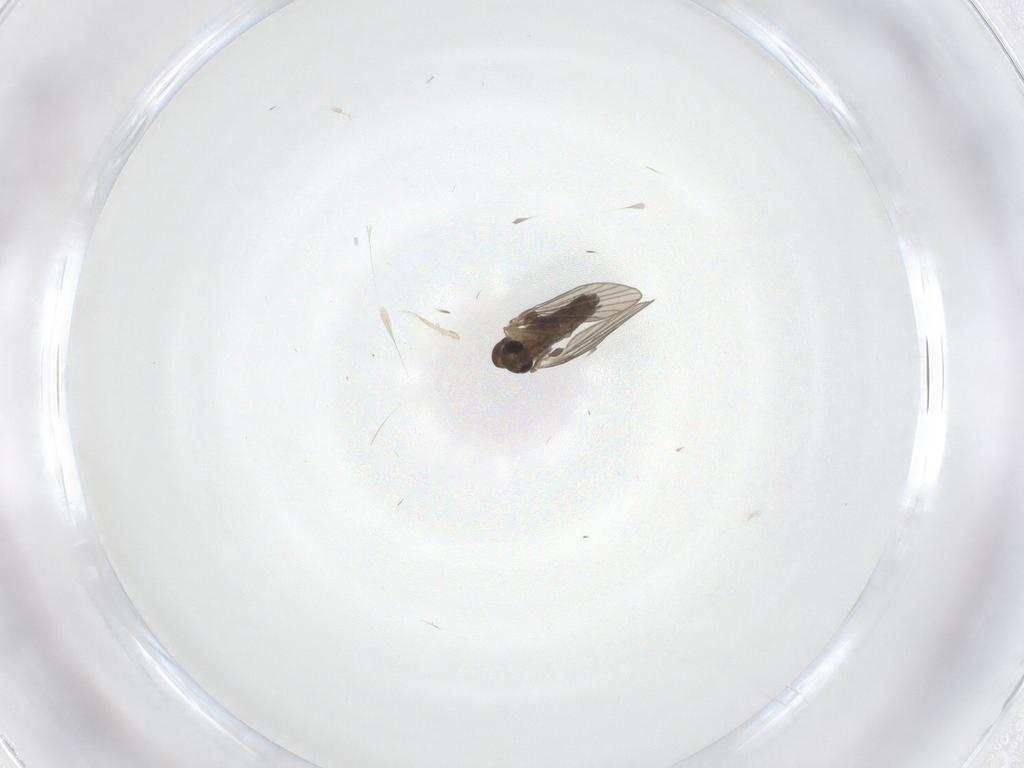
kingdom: Animalia
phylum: Arthropoda
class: Insecta
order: Diptera
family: Psychodidae
